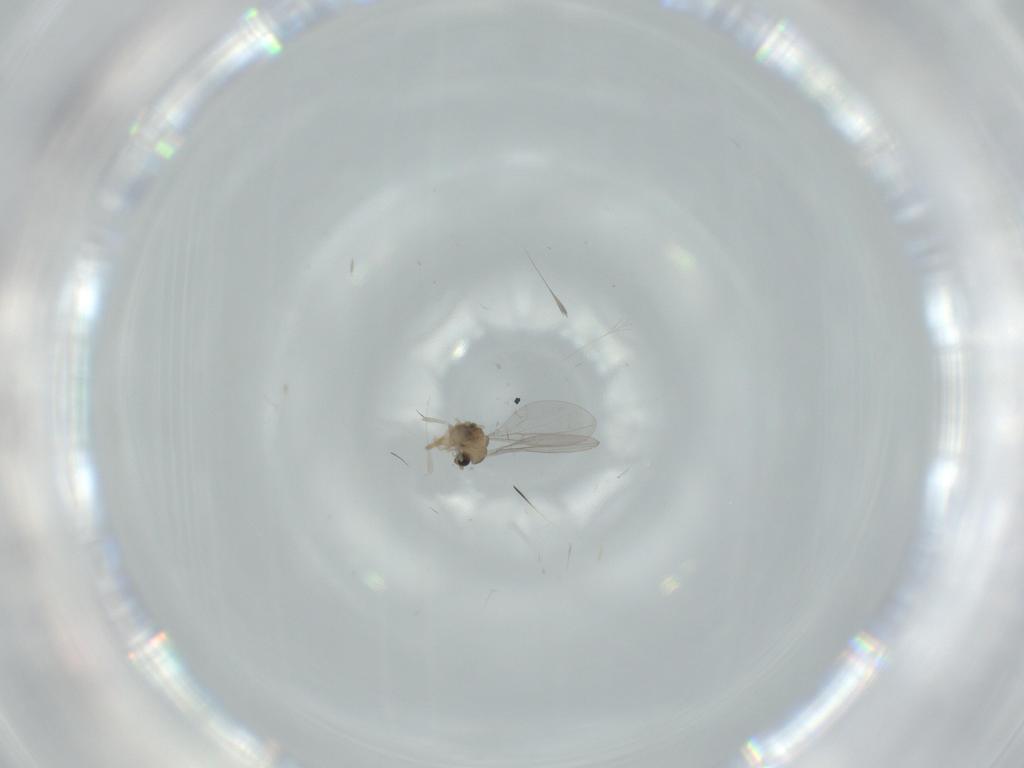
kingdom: Animalia
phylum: Arthropoda
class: Insecta
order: Diptera
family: Cecidomyiidae
